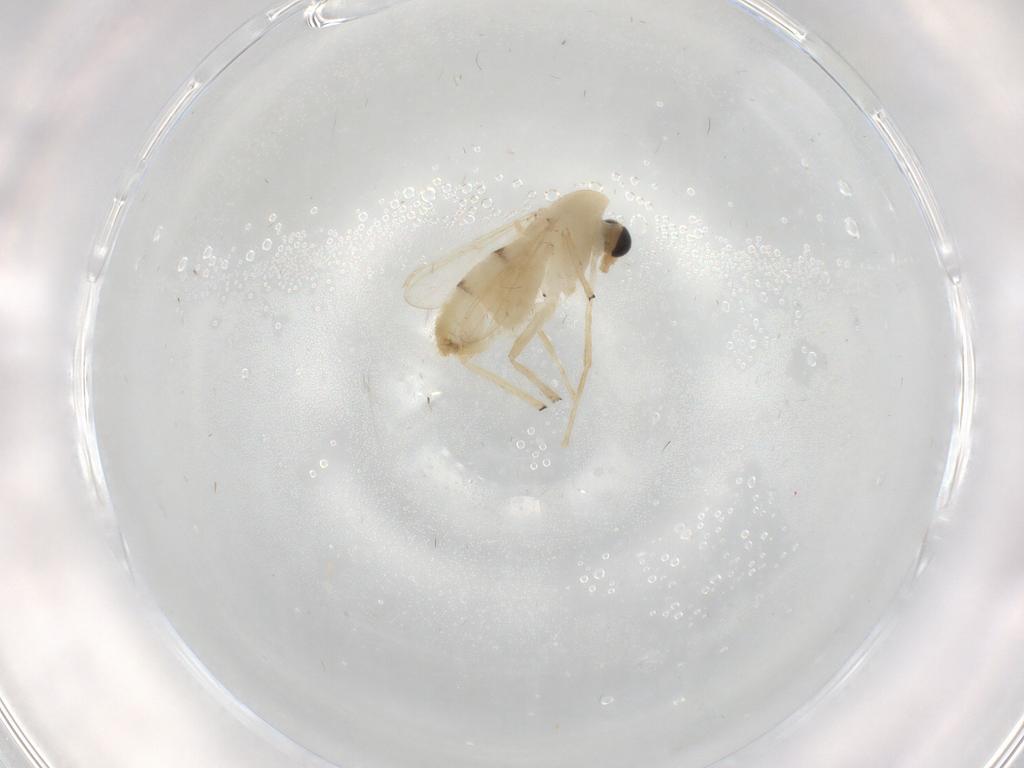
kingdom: Animalia
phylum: Arthropoda
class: Insecta
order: Diptera
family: Chironomidae
